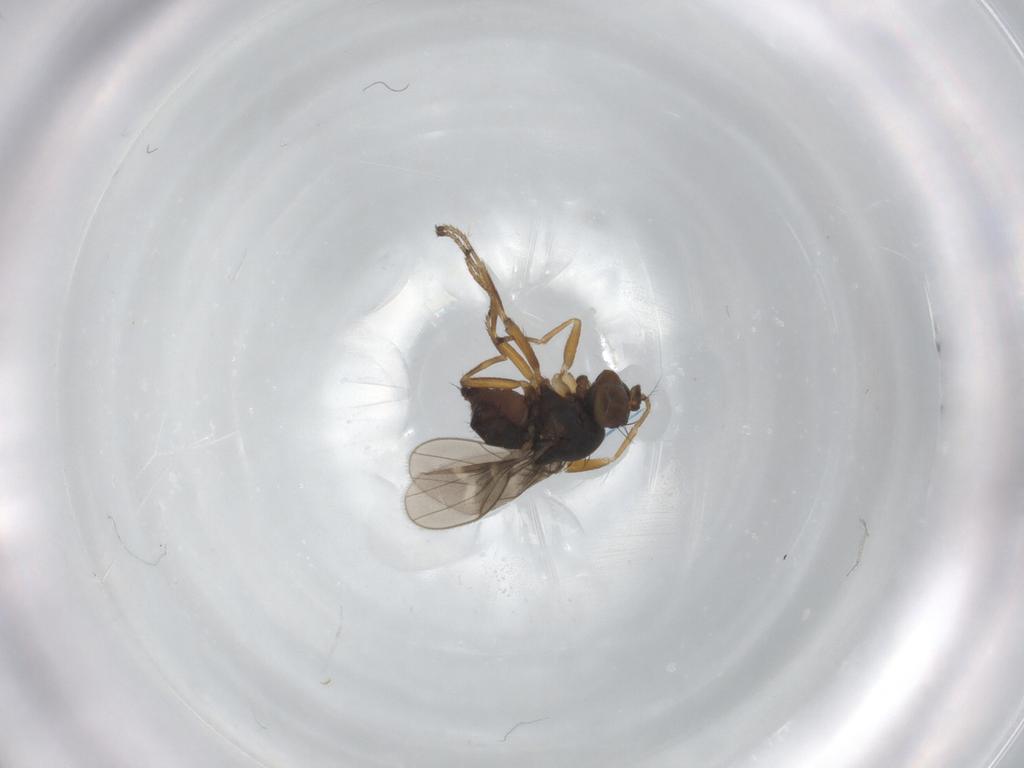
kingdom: Animalia
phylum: Arthropoda
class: Insecta
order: Diptera
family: Ephydridae
